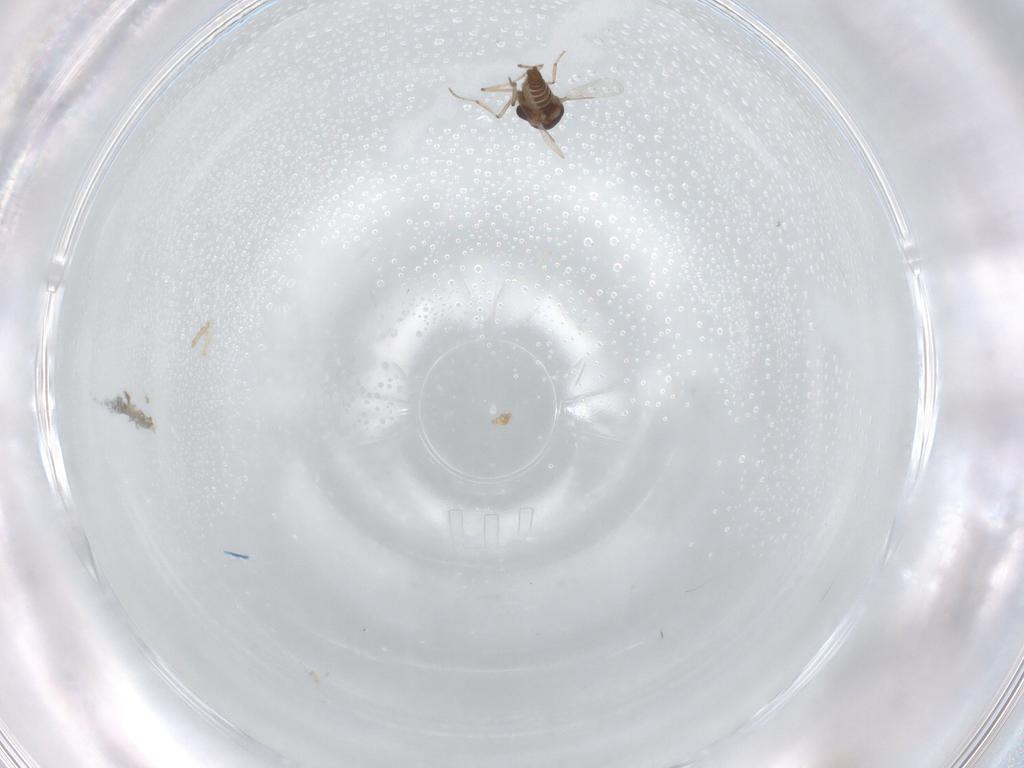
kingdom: Animalia
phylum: Arthropoda
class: Insecta
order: Diptera
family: Ceratopogonidae
